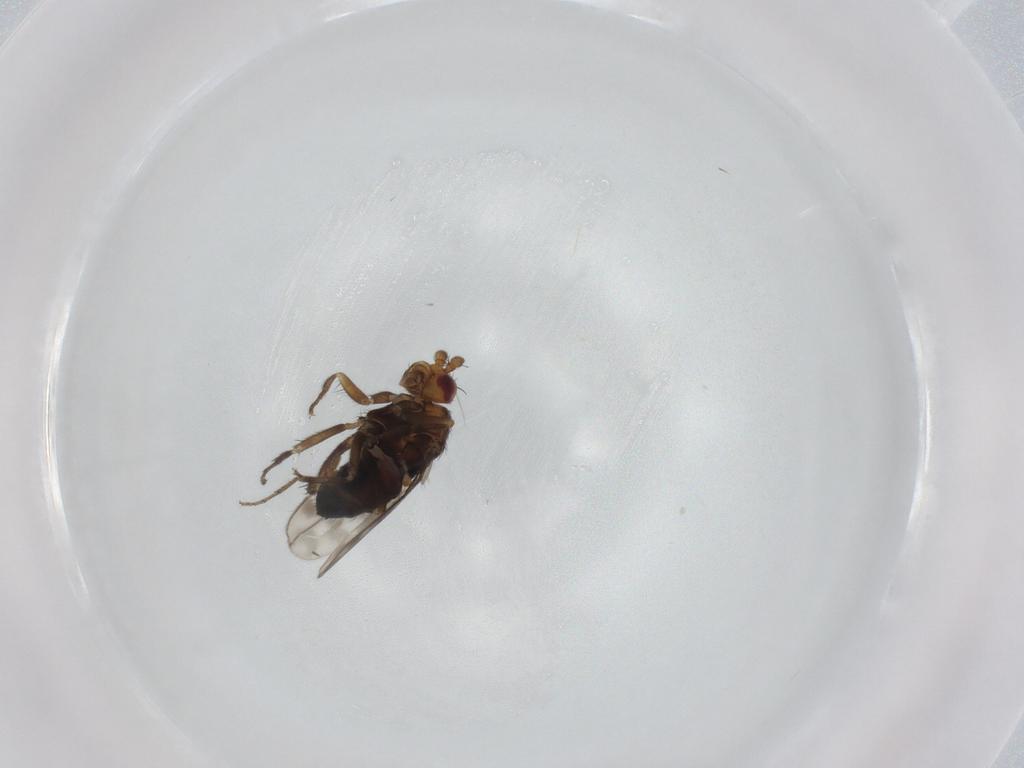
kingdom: Animalia
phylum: Arthropoda
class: Insecta
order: Diptera
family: Sphaeroceridae
